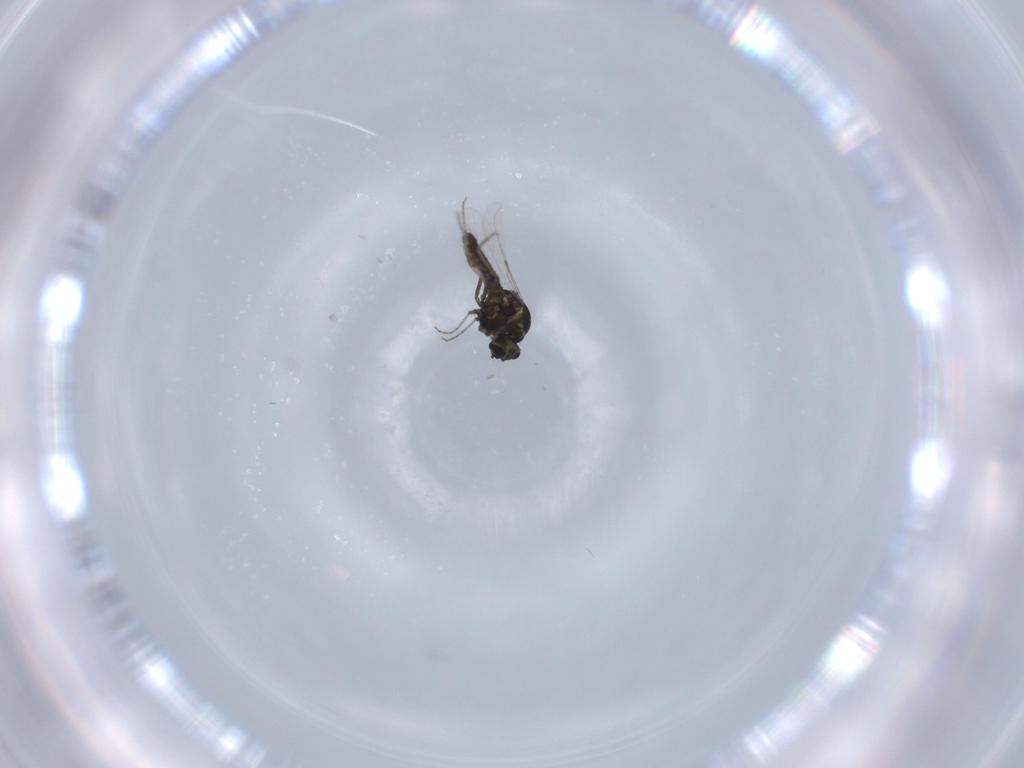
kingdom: Animalia
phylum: Arthropoda
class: Insecta
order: Diptera
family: Ceratopogonidae
